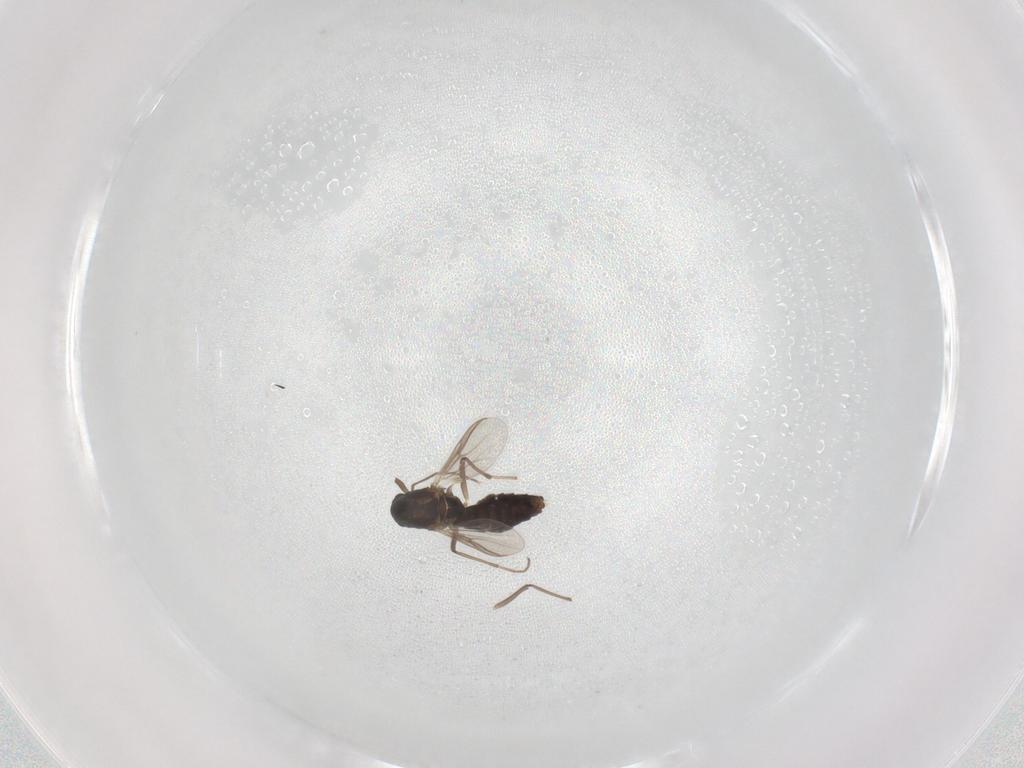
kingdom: Animalia
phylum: Arthropoda
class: Insecta
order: Diptera
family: Chironomidae
